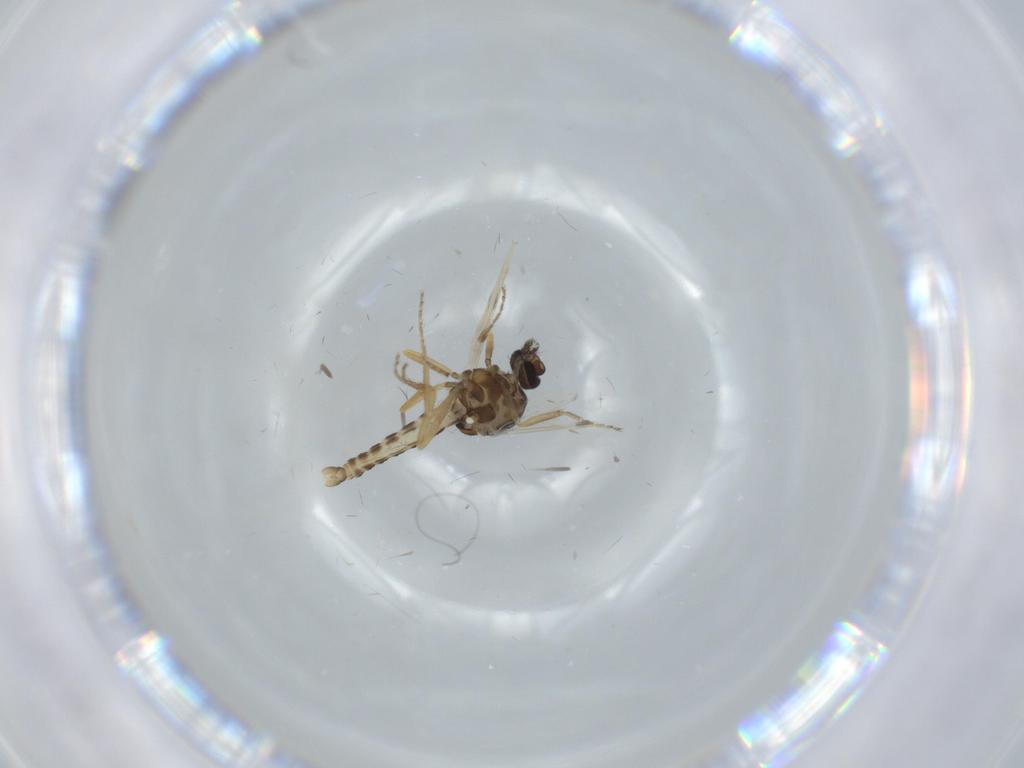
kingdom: Animalia
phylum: Arthropoda
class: Insecta
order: Diptera
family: Ceratopogonidae
